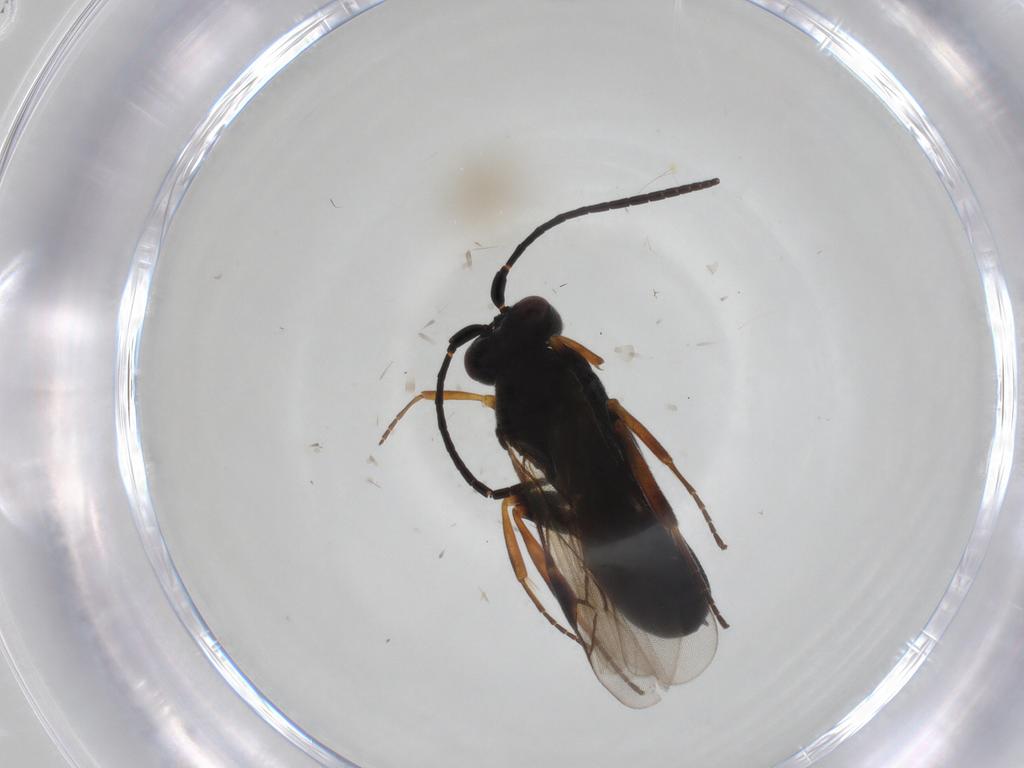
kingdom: Animalia
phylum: Arthropoda
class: Insecta
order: Hymenoptera
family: Braconidae
